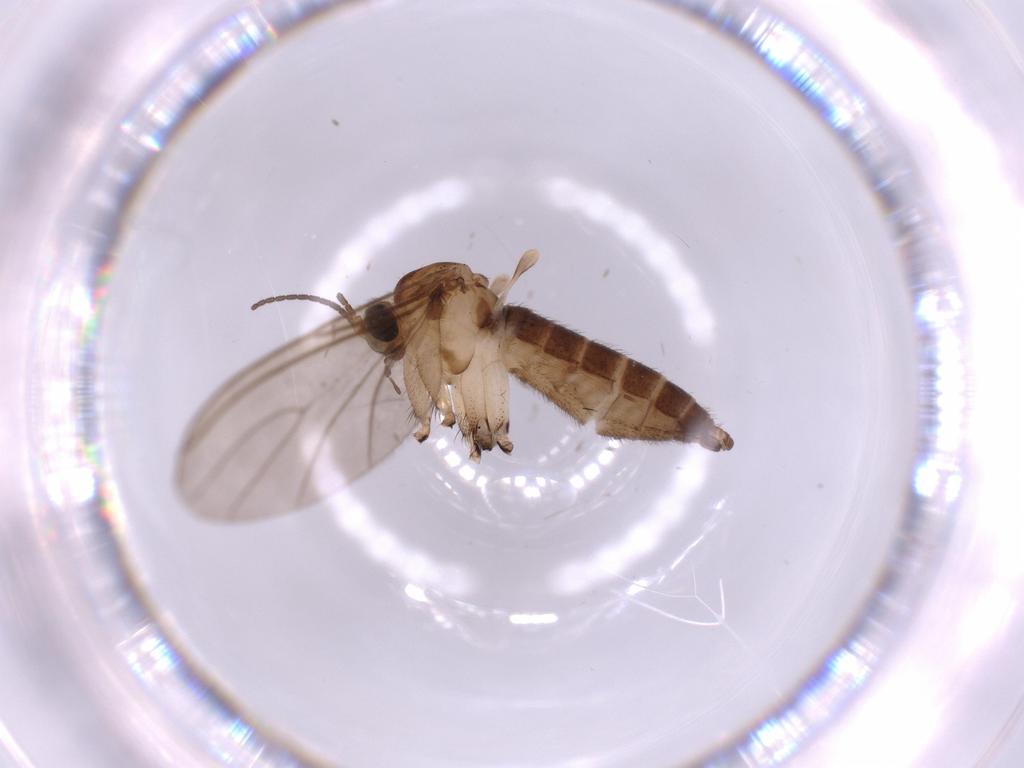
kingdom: Animalia
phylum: Arthropoda
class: Insecta
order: Diptera
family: Sciaridae
